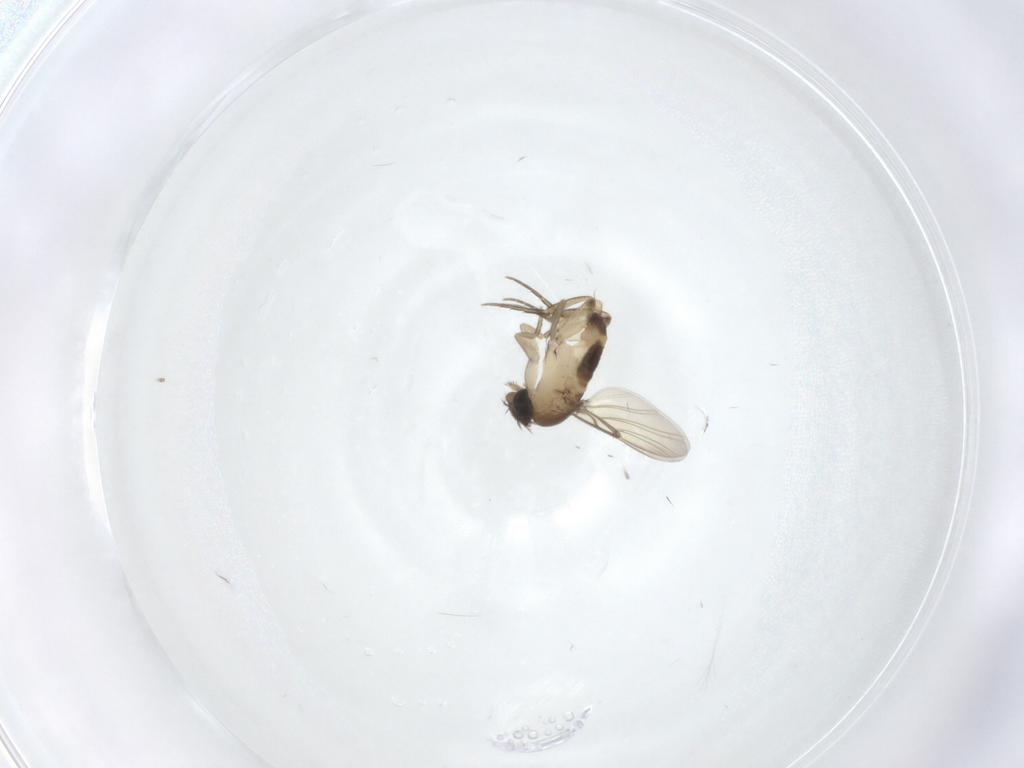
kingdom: Animalia
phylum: Arthropoda
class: Insecta
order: Diptera
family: Phoridae
